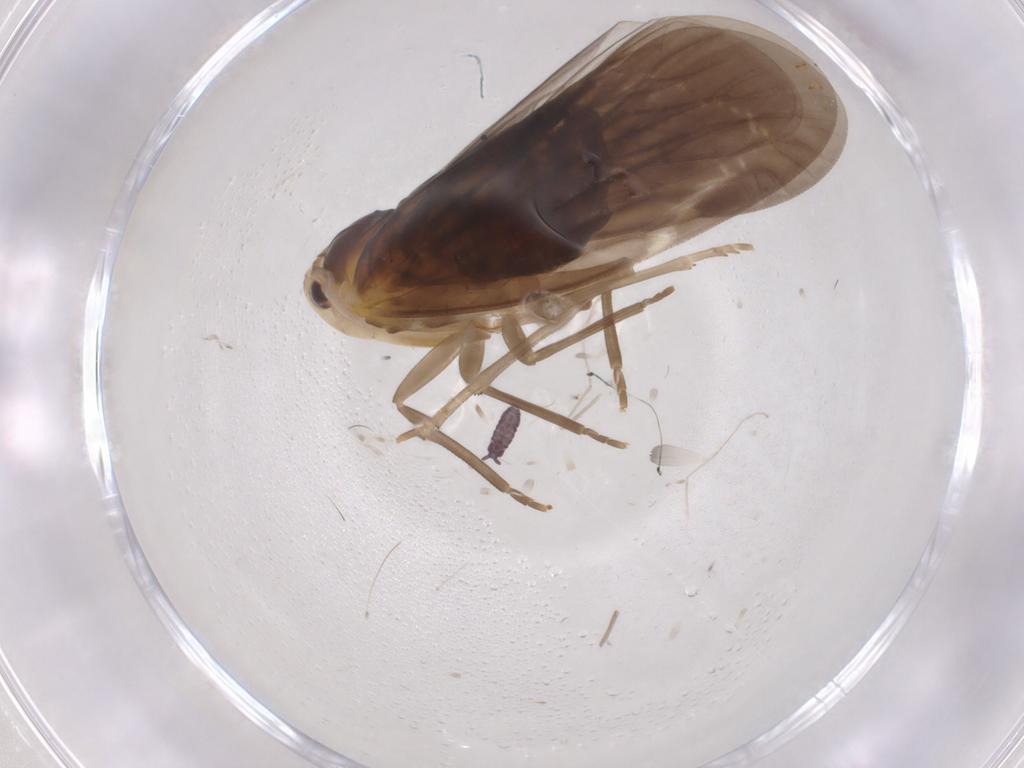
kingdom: Animalia
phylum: Arthropoda
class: Insecta
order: Hemiptera
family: Derbidae
